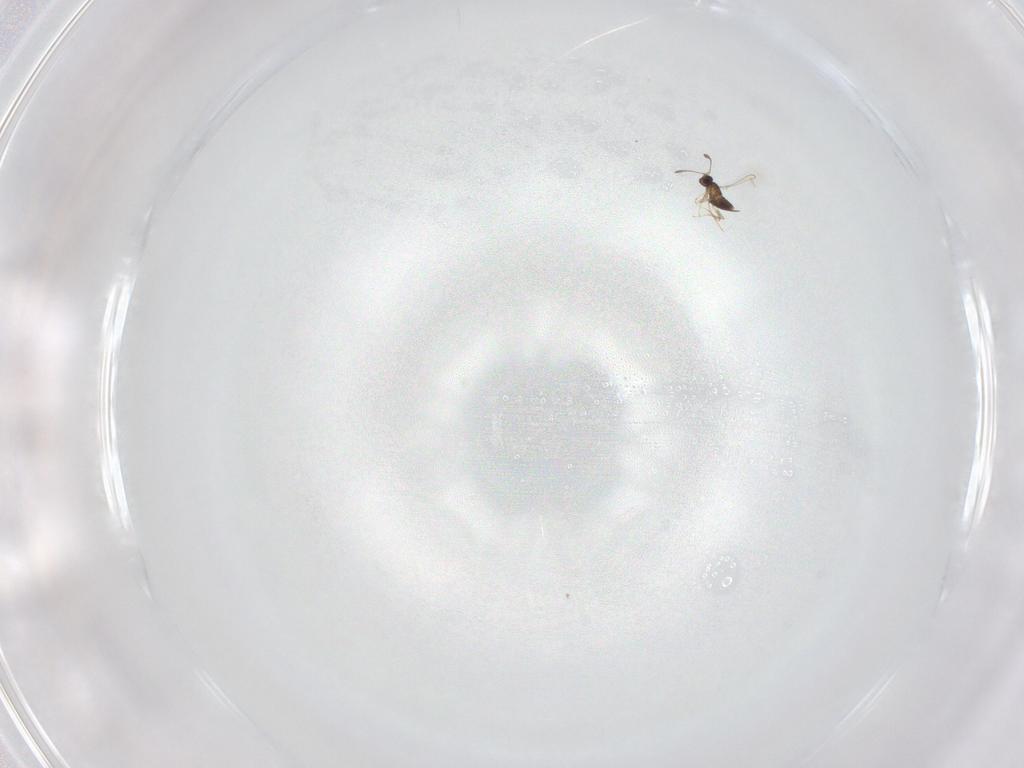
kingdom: Animalia
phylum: Arthropoda
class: Insecta
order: Hymenoptera
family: Mymaridae
